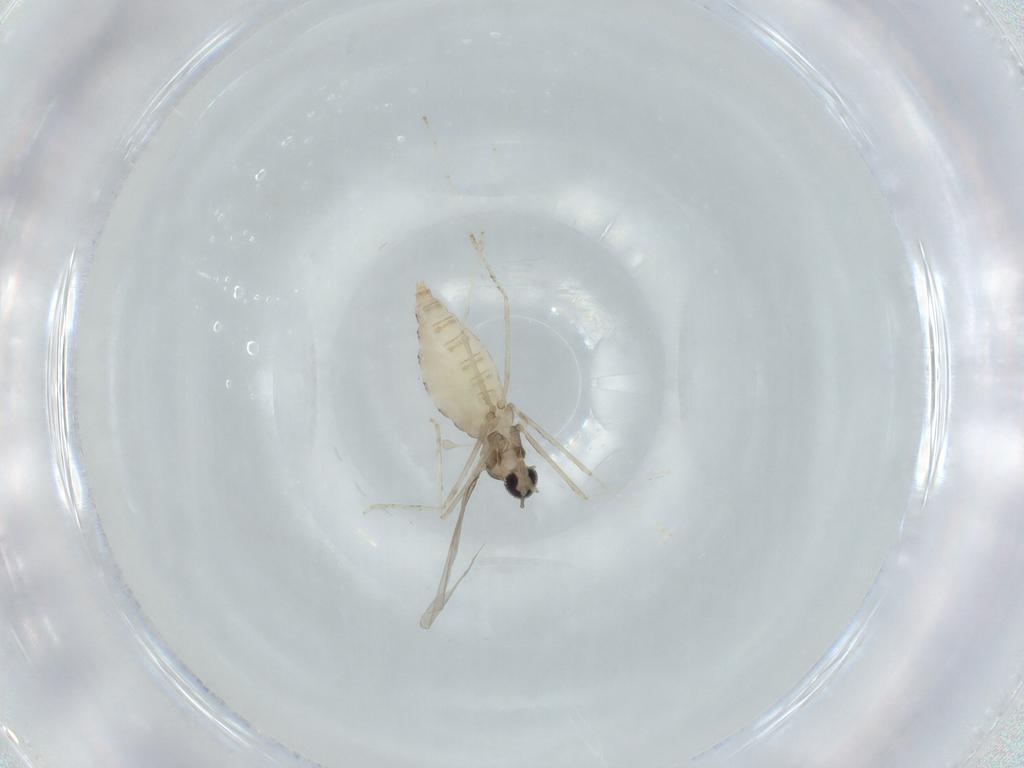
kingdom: Animalia
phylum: Arthropoda
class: Insecta
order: Diptera
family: Cecidomyiidae
